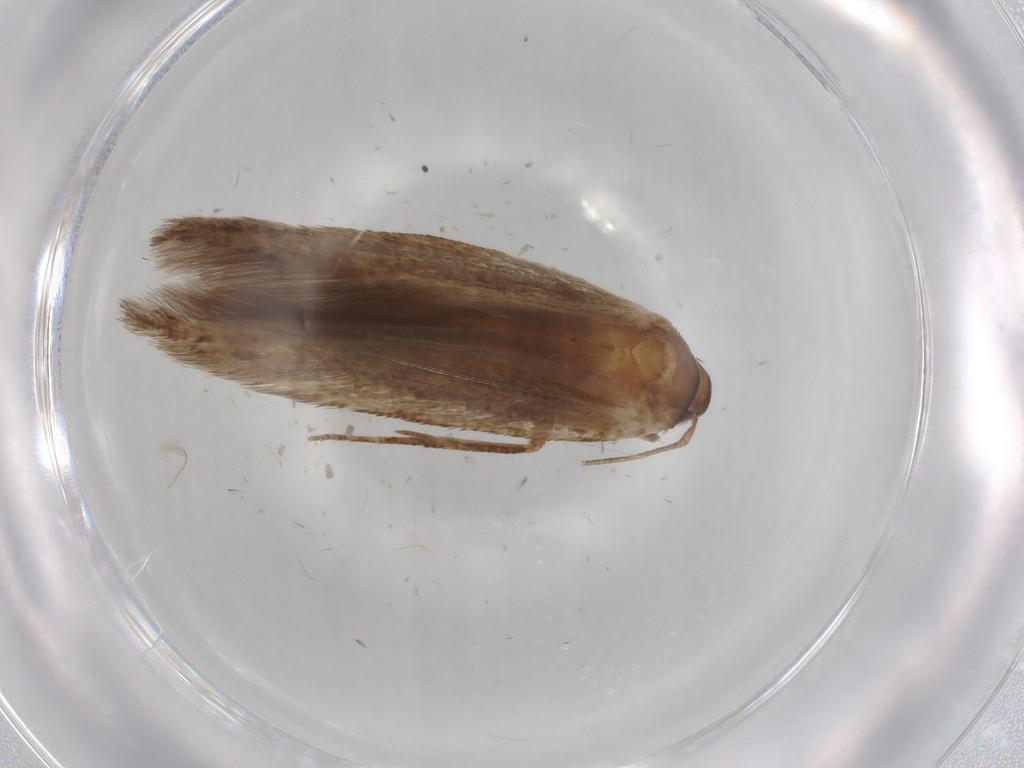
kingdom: Animalia
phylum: Arthropoda
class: Insecta
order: Lepidoptera
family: Cosmopterigidae
